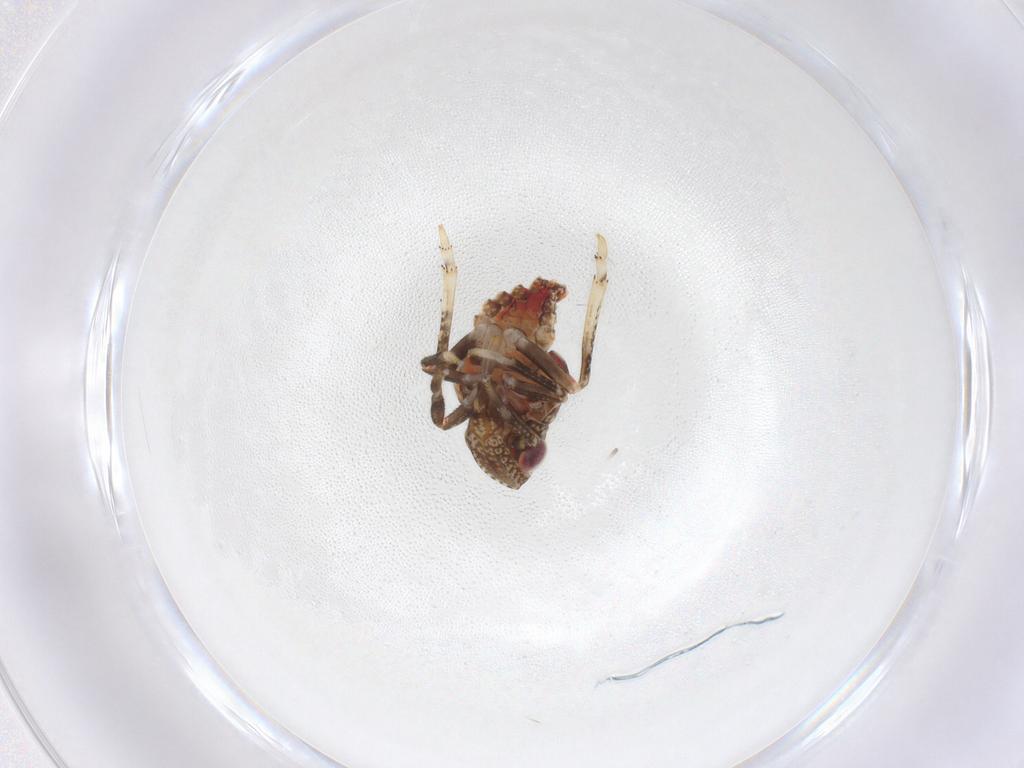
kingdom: Animalia
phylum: Arthropoda
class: Insecta
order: Hemiptera
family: Tropiduchidae
